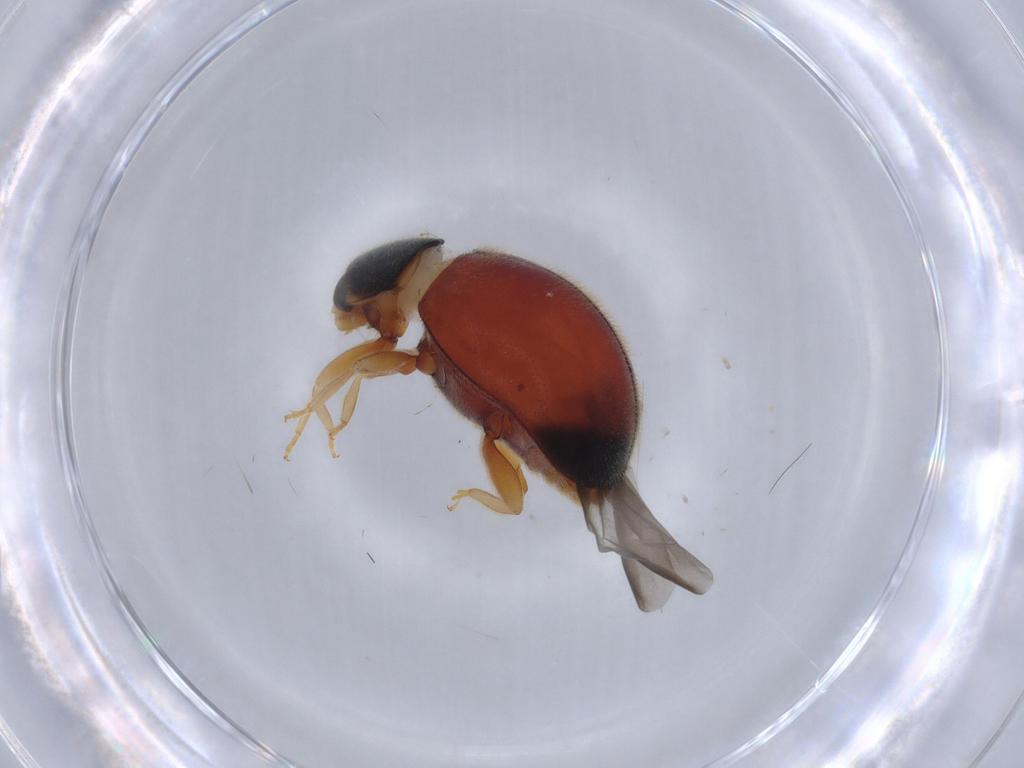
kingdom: Animalia
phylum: Arthropoda
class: Insecta
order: Coleoptera
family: Coccinellidae
